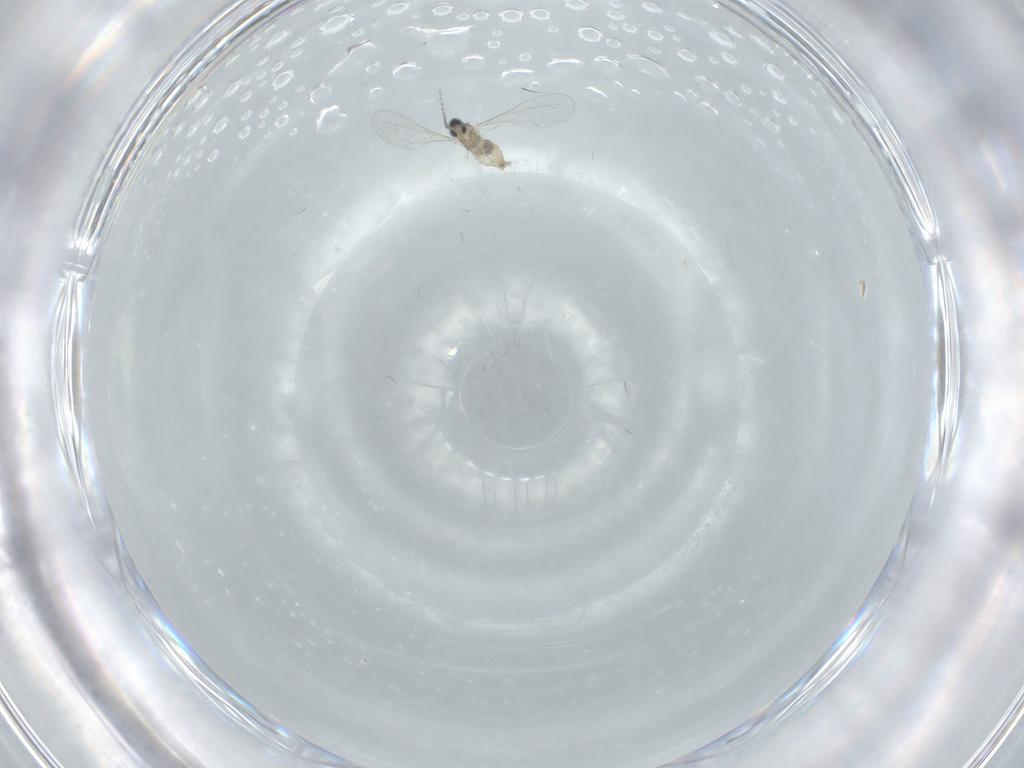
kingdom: Animalia
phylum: Arthropoda
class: Insecta
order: Diptera
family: Cecidomyiidae
